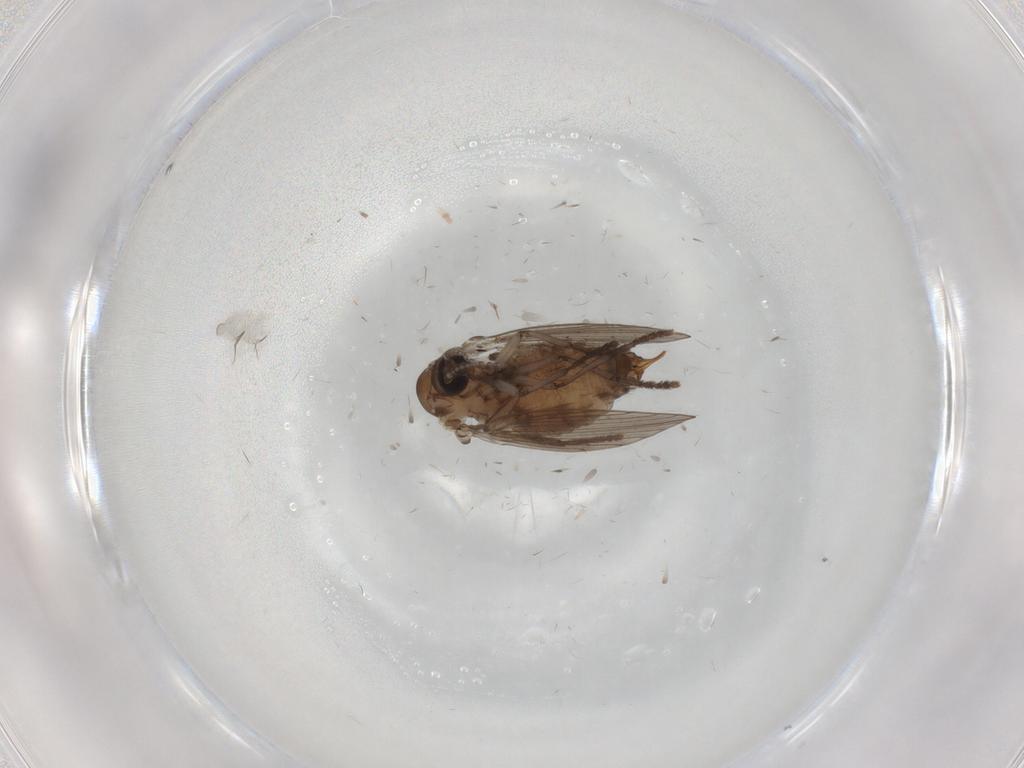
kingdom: Animalia
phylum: Arthropoda
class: Insecta
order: Diptera
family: Psychodidae
